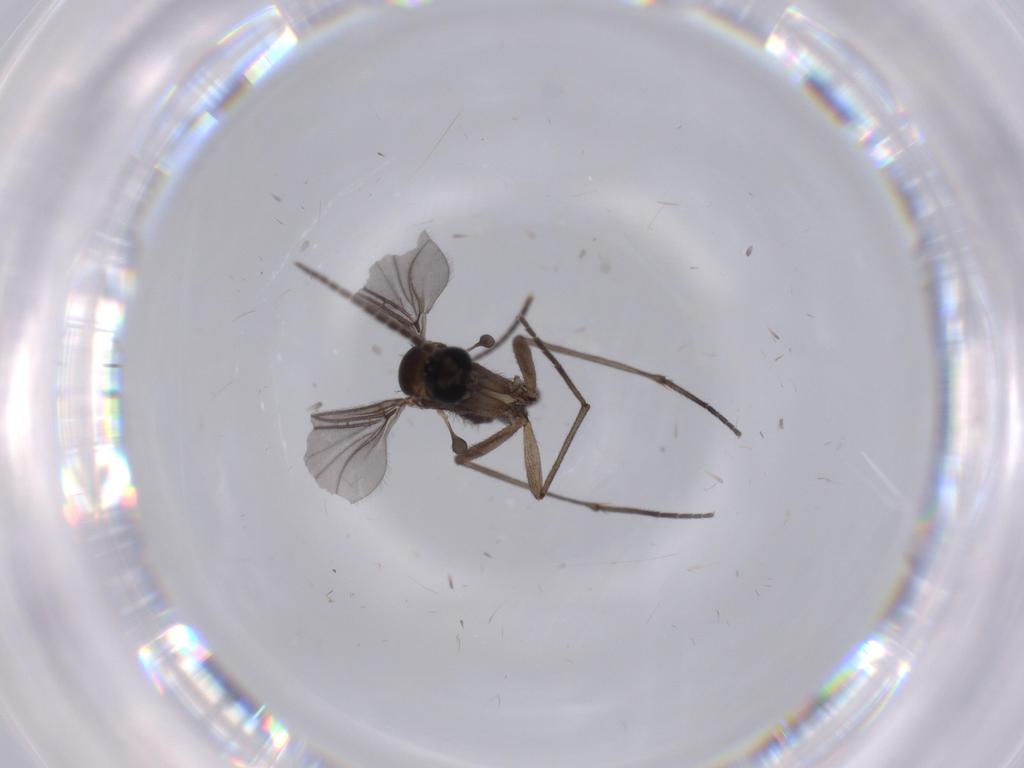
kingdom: Animalia
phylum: Arthropoda
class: Insecta
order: Diptera
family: Sciaridae
